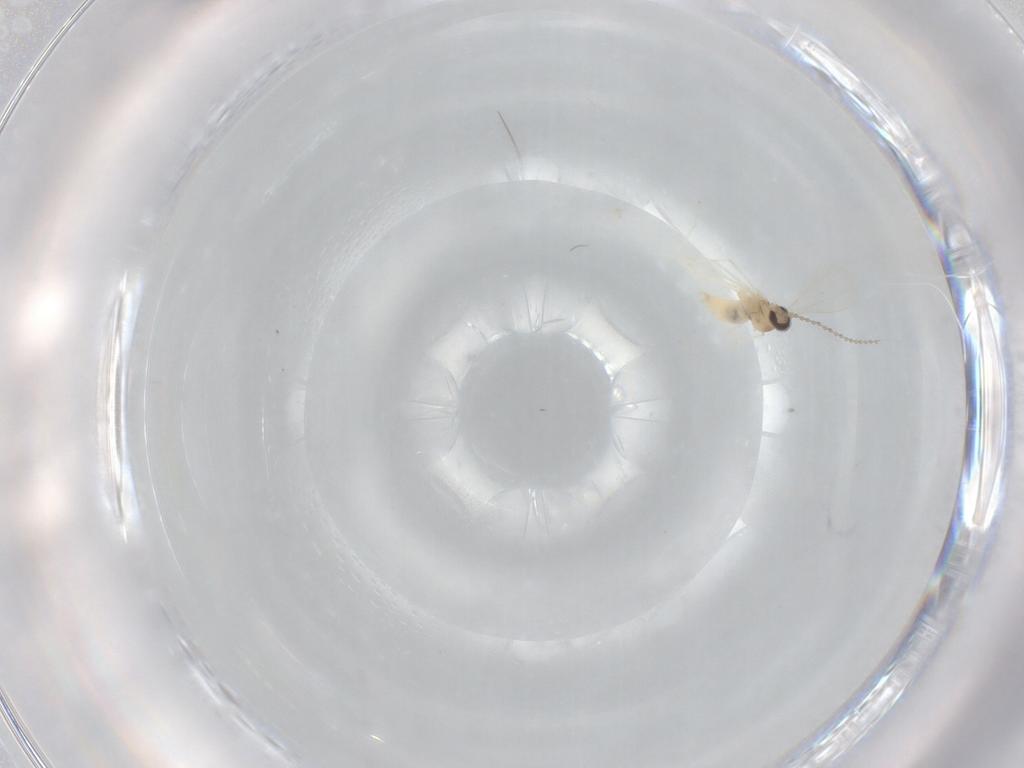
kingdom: Animalia
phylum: Arthropoda
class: Insecta
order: Diptera
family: Cecidomyiidae
